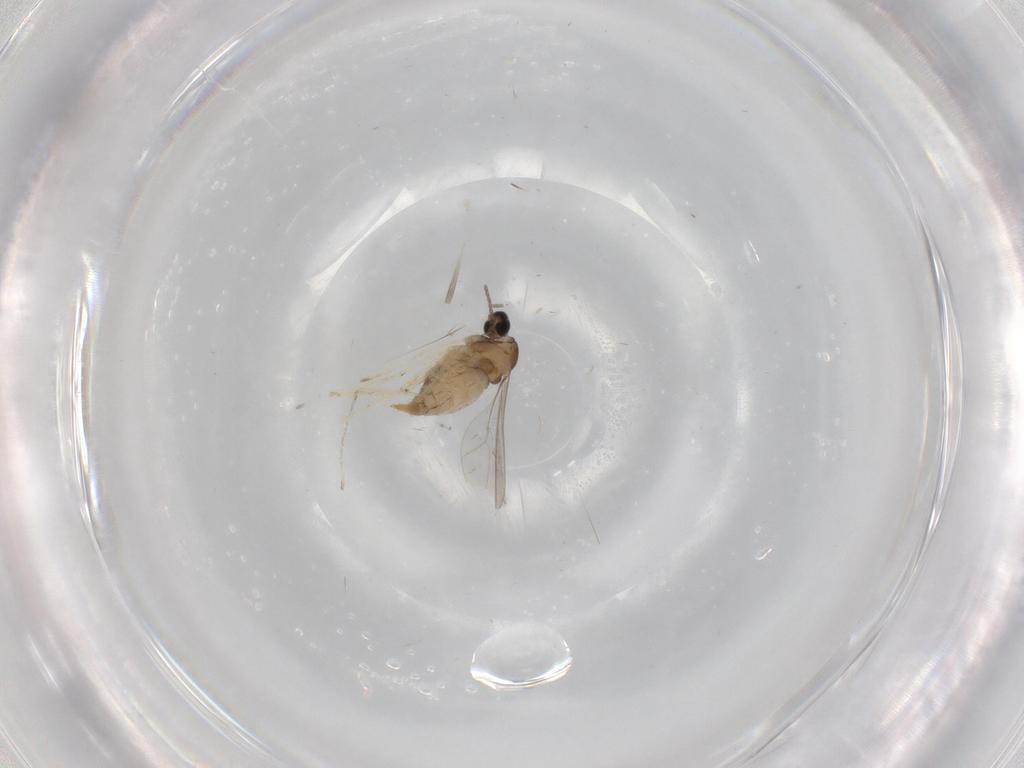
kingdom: Animalia
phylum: Arthropoda
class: Insecta
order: Diptera
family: Cecidomyiidae
